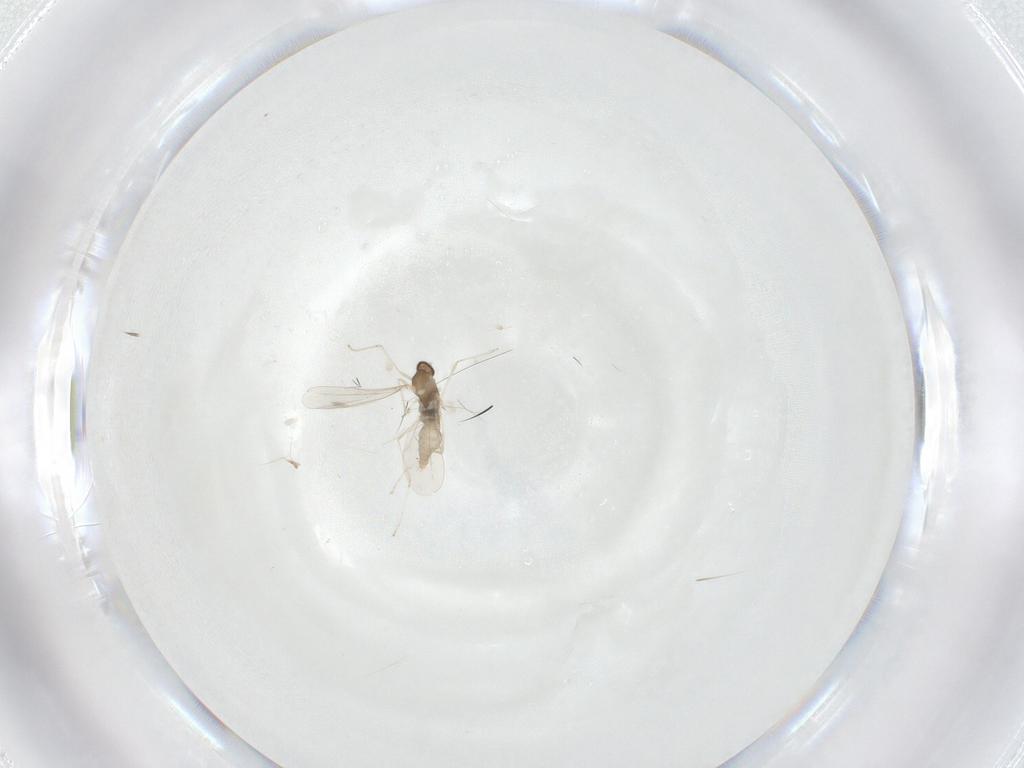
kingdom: Animalia
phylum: Arthropoda
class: Insecta
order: Diptera
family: Cecidomyiidae
